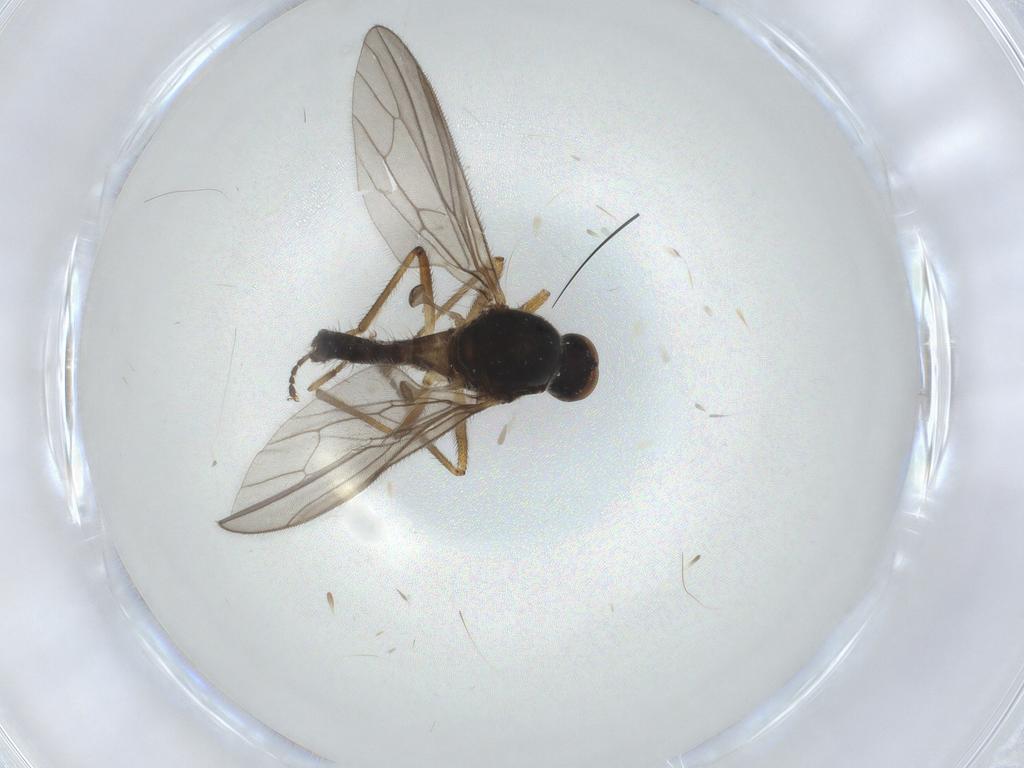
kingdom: Animalia
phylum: Arthropoda
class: Insecta
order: Diptera
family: Hybotidae
